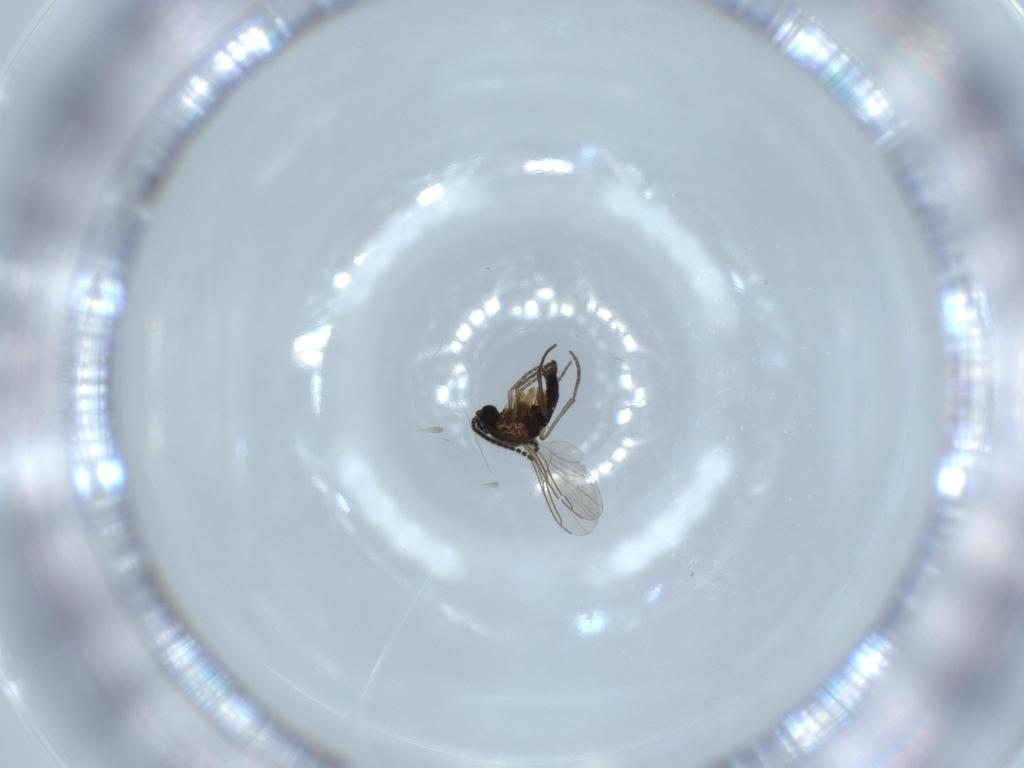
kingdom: Animalia
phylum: Arthropoda
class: Insecta
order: Diptera
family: Sciaridae
